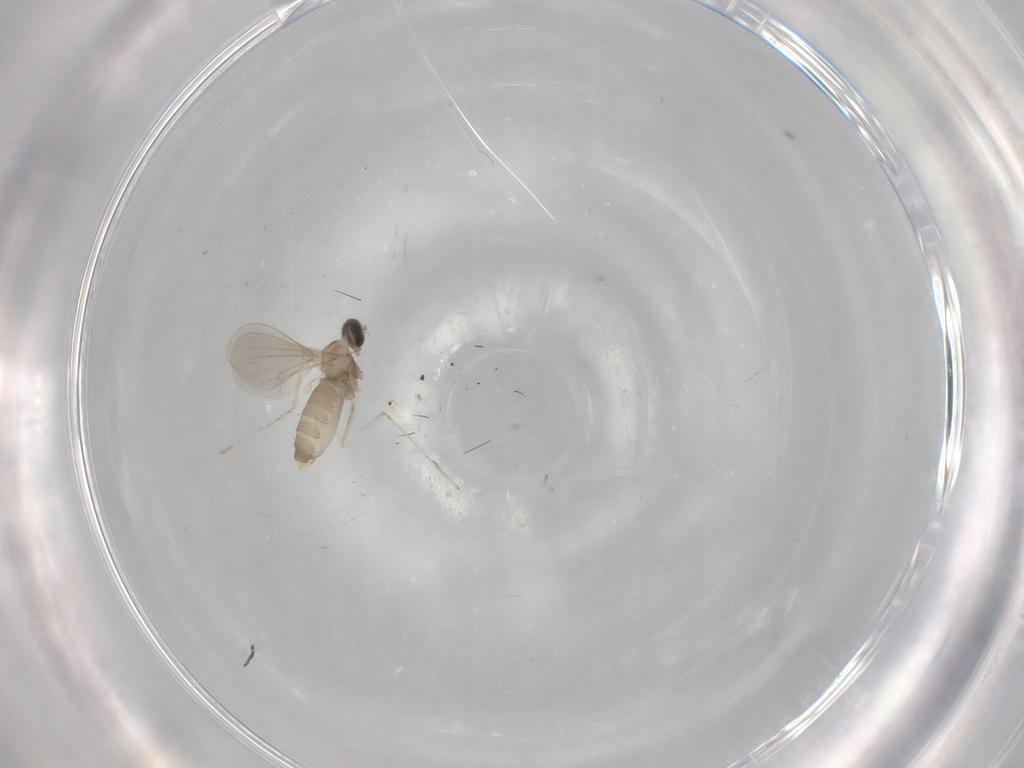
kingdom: Animalia
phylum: Arthropoda
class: Insecta
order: Diptera
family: Cecidomyiidae
